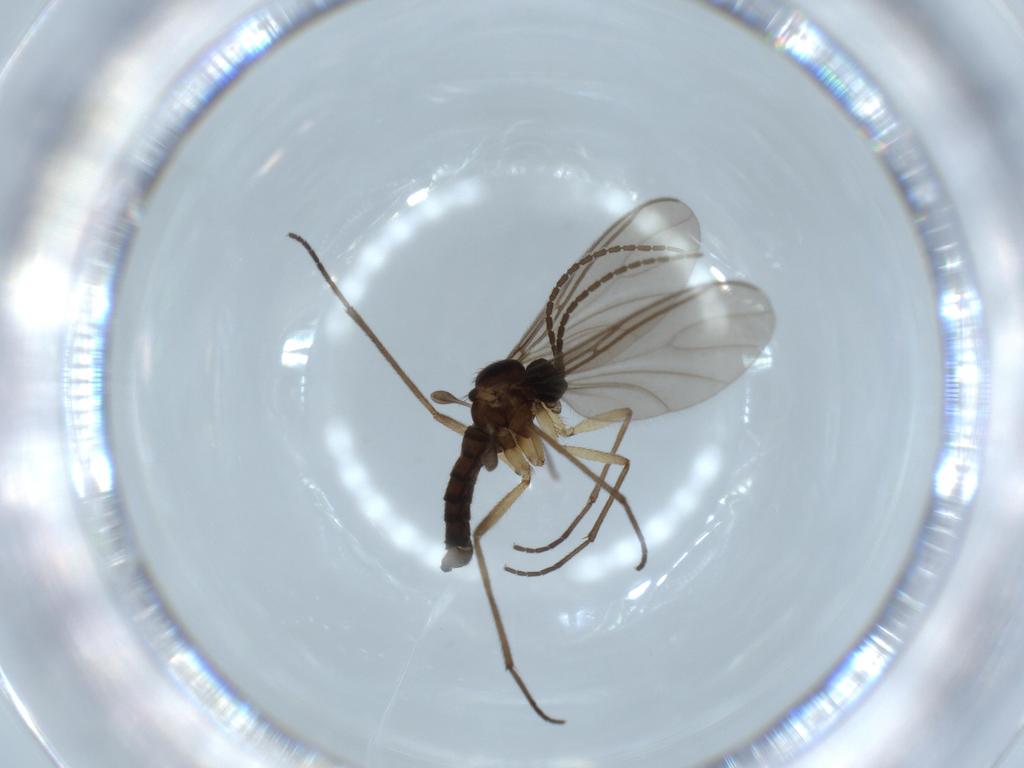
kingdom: Animalia
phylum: Arthropoda
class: Insecta
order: Diptera
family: Sciaridae
